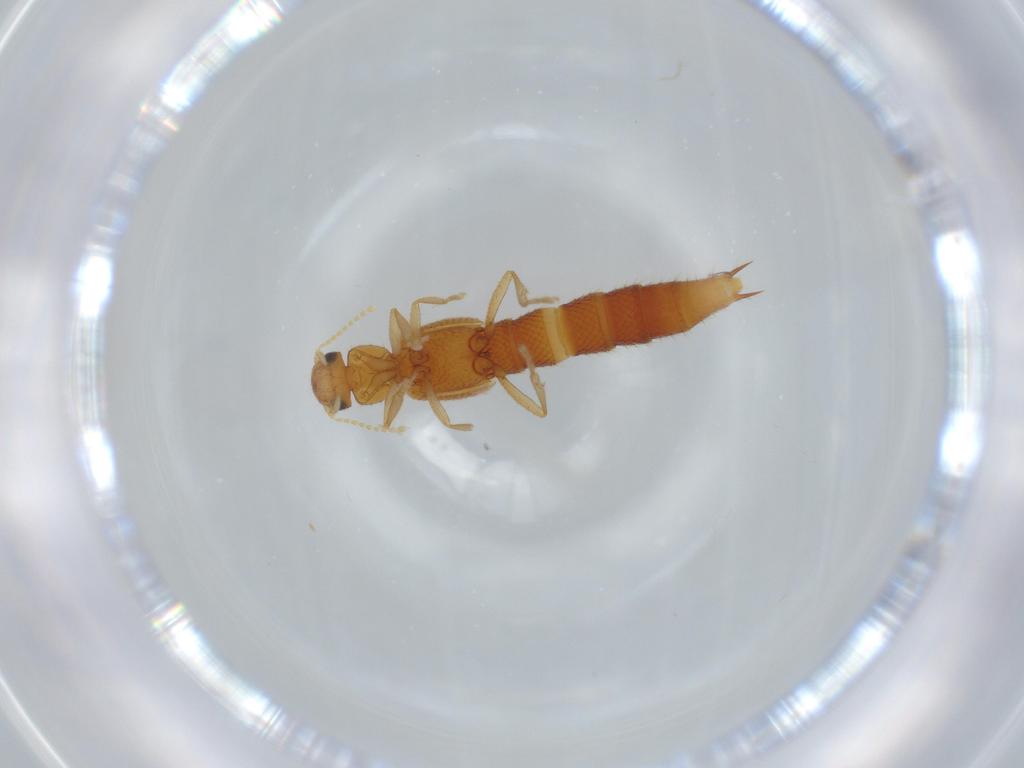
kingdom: Animalia
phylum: Arthropoda
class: Insecta
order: Coleoptera
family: Staphylinidae
